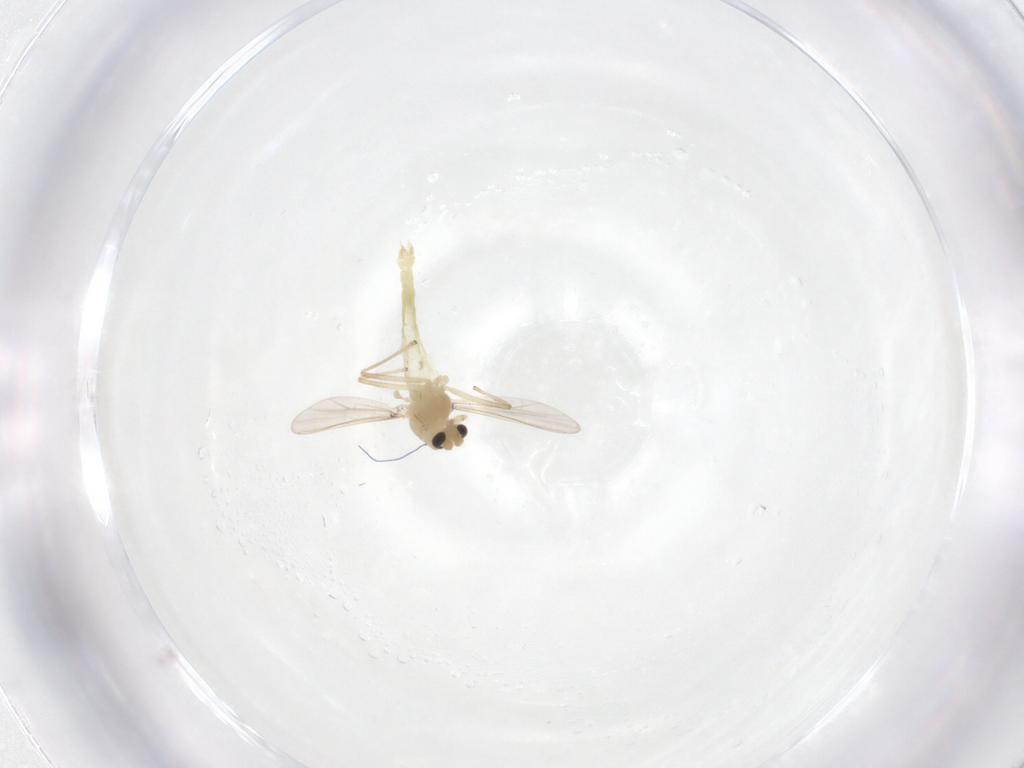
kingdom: Animalia
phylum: Arthropoda
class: Insecta
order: Diptera
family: Chironomidae
